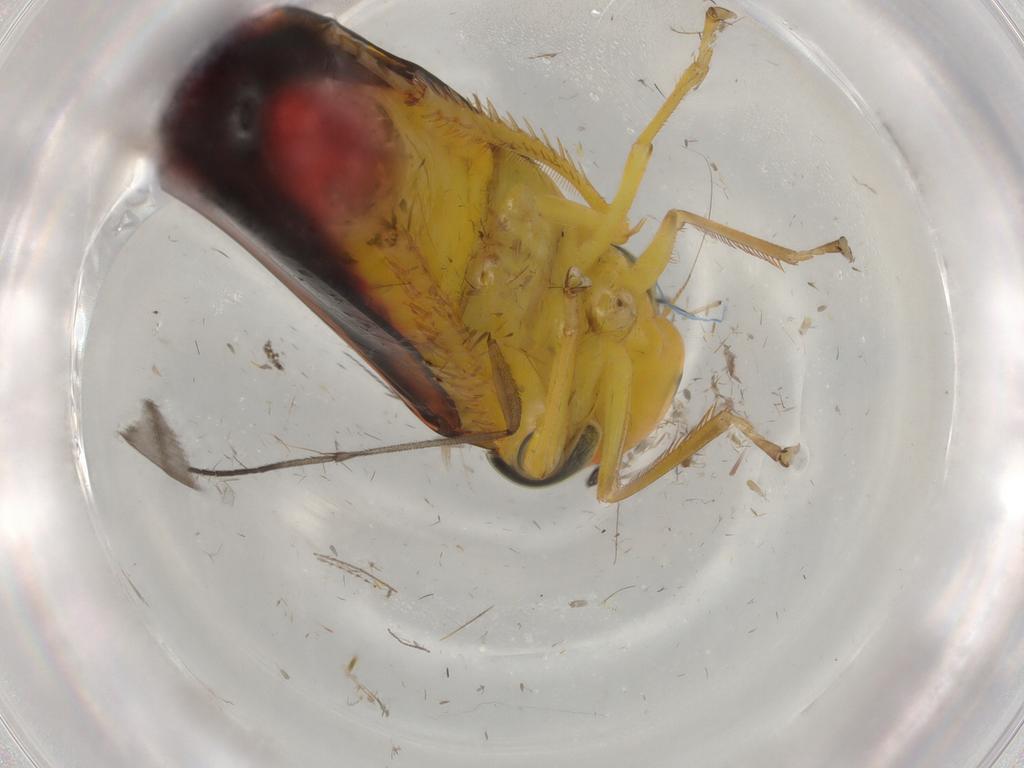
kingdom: Animalia
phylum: Arthropoda
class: Insecta
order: Hemiptera
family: Cicadellidae
